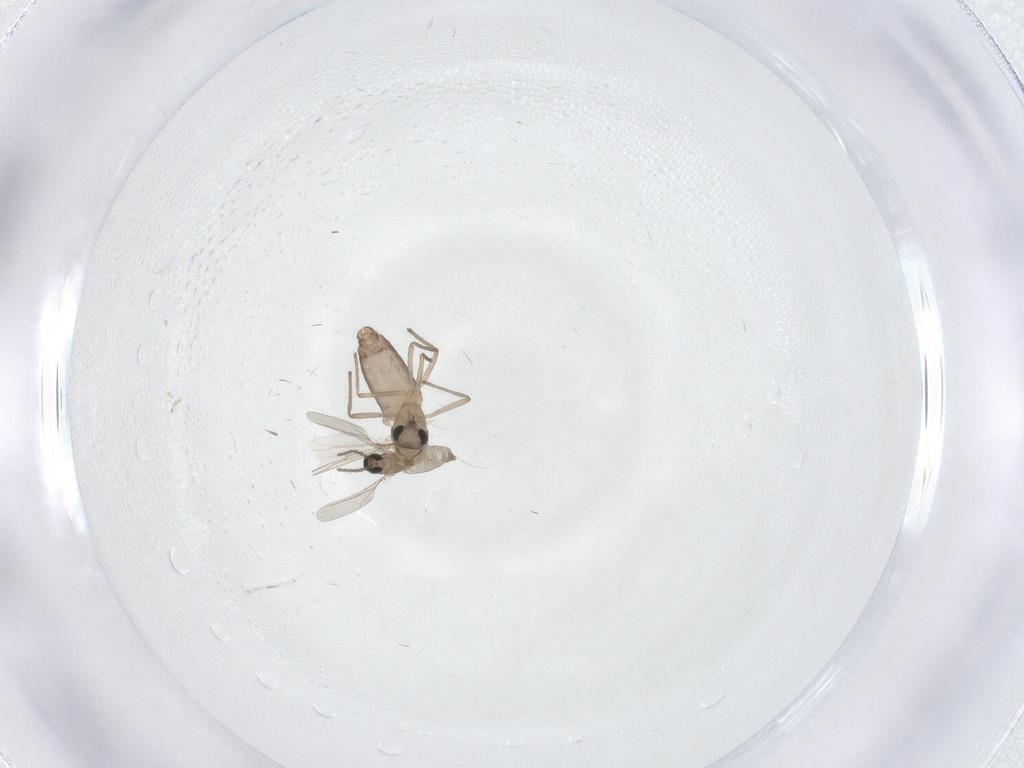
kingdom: Animalia
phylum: Arthropoda
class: Insecta
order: Diptera
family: Chironomidae
